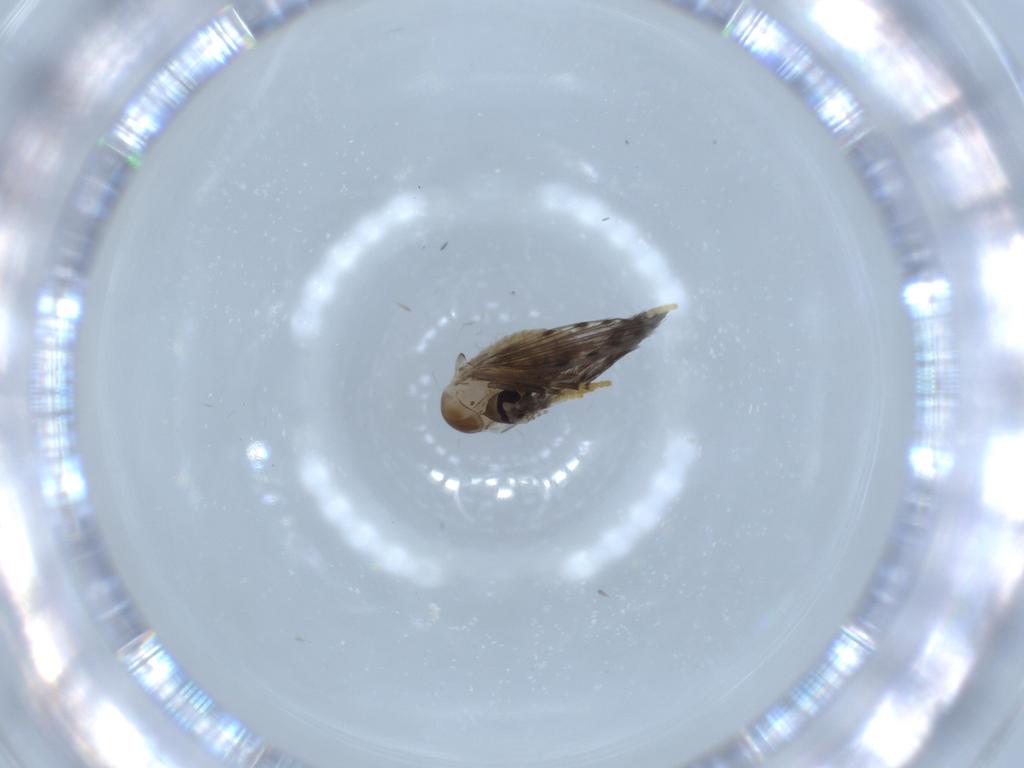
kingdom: Animalia
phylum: Arthropoda
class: Insecta
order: Diptera
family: Psychodidae
